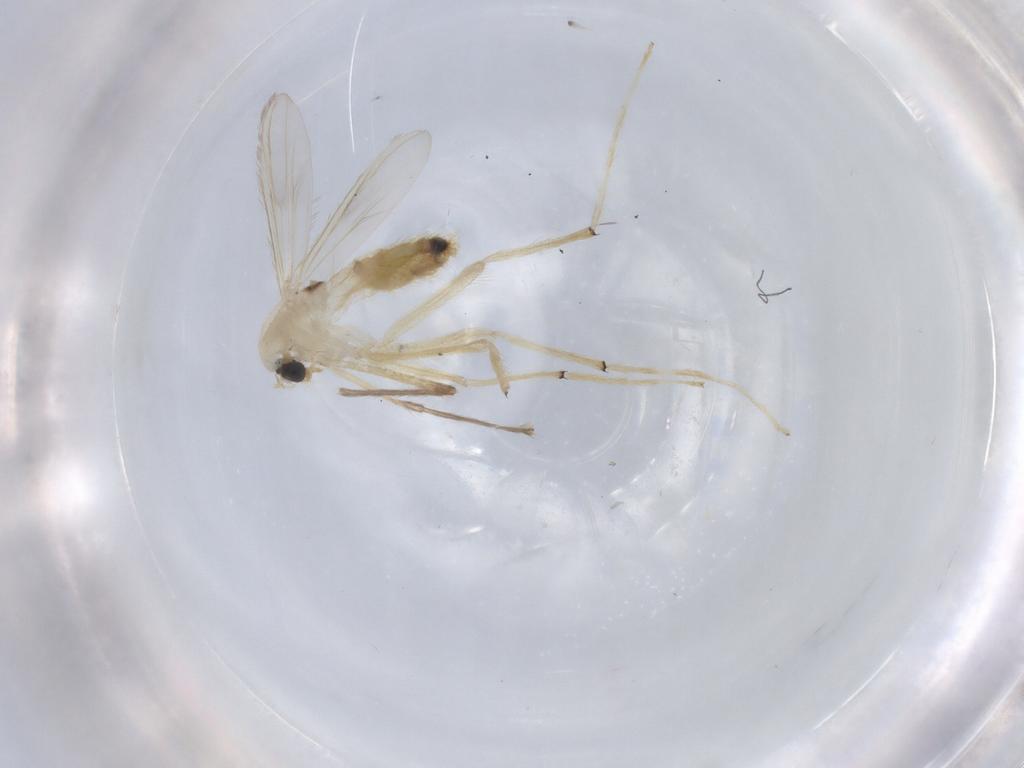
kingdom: Animalia
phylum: Arthropoda
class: Insecta
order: Diptera
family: Chironomidae
